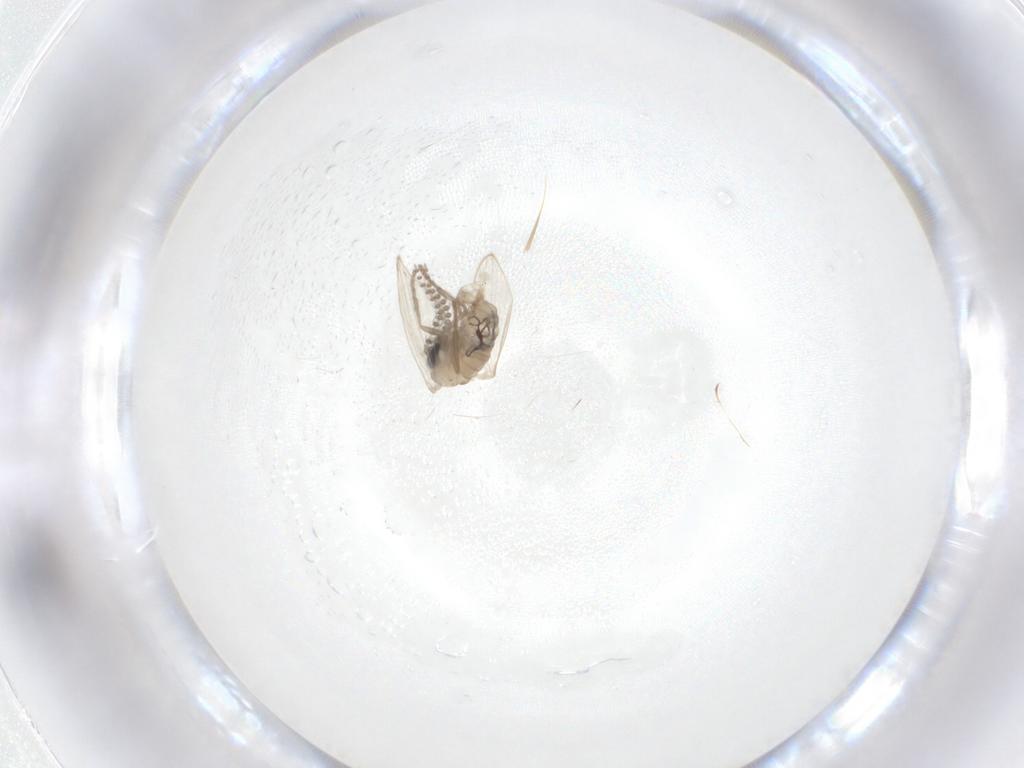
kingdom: Animalia
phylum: Arthropoda
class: Insecta
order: Diptera
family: Psychodidae
